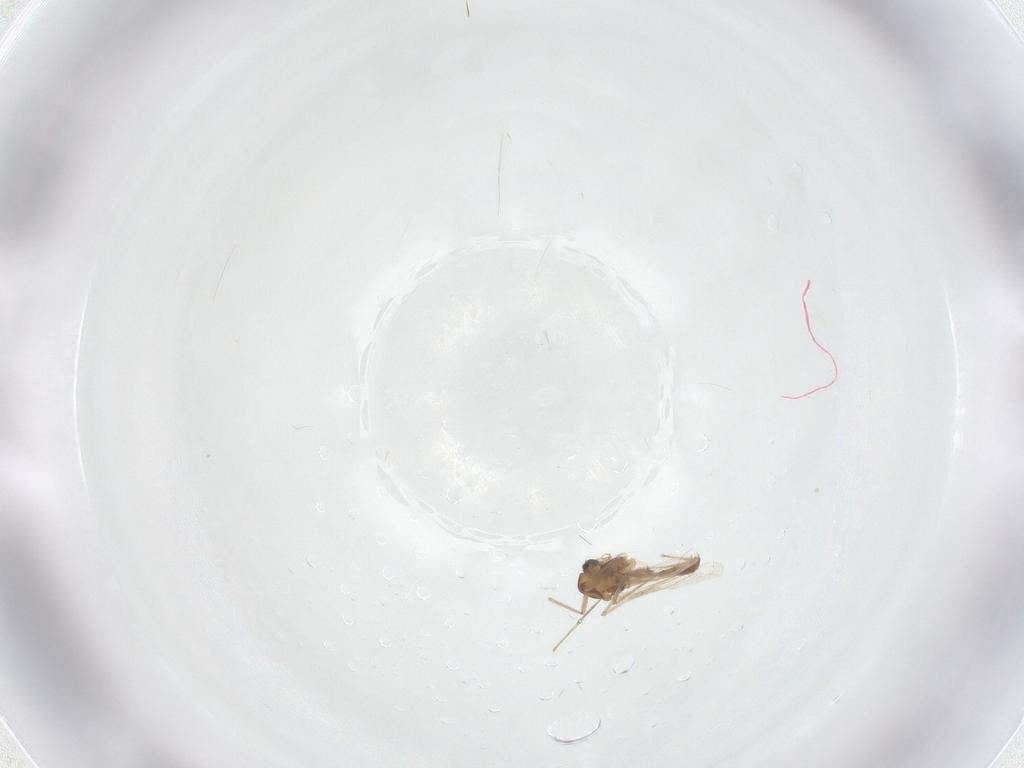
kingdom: Animalia
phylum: Arthropoda
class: Insecta
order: Diptera
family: Chironomidae
